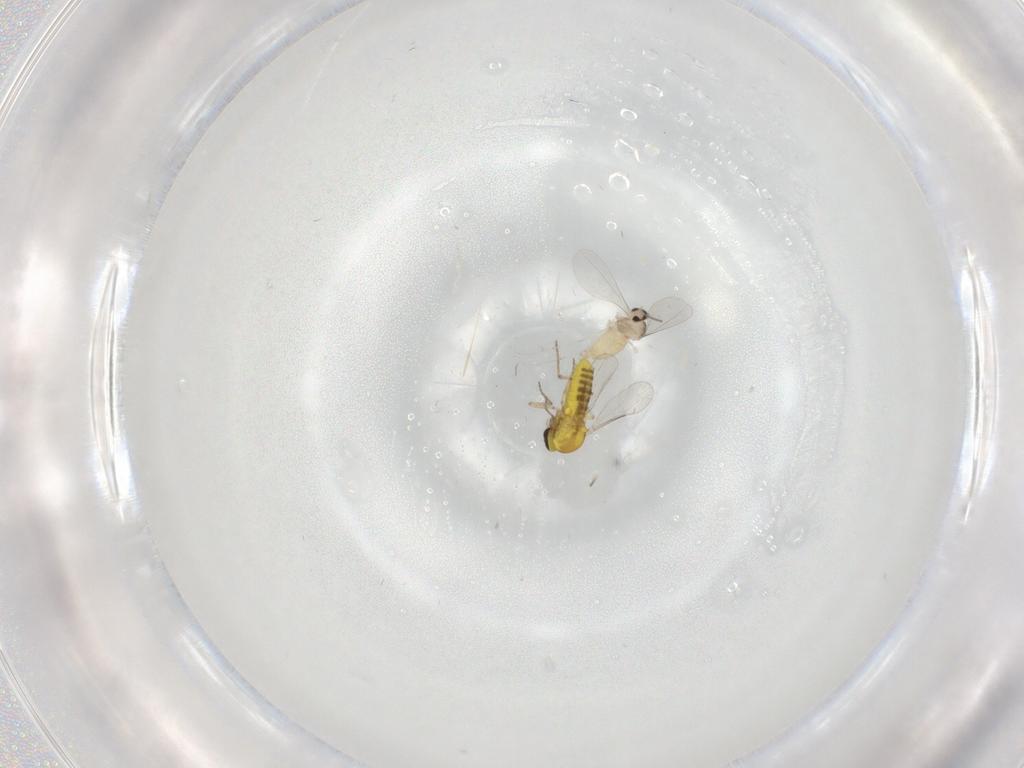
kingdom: Animalia
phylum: Arthropoda
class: Insecta
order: Diptera
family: Cecidomyiidae
